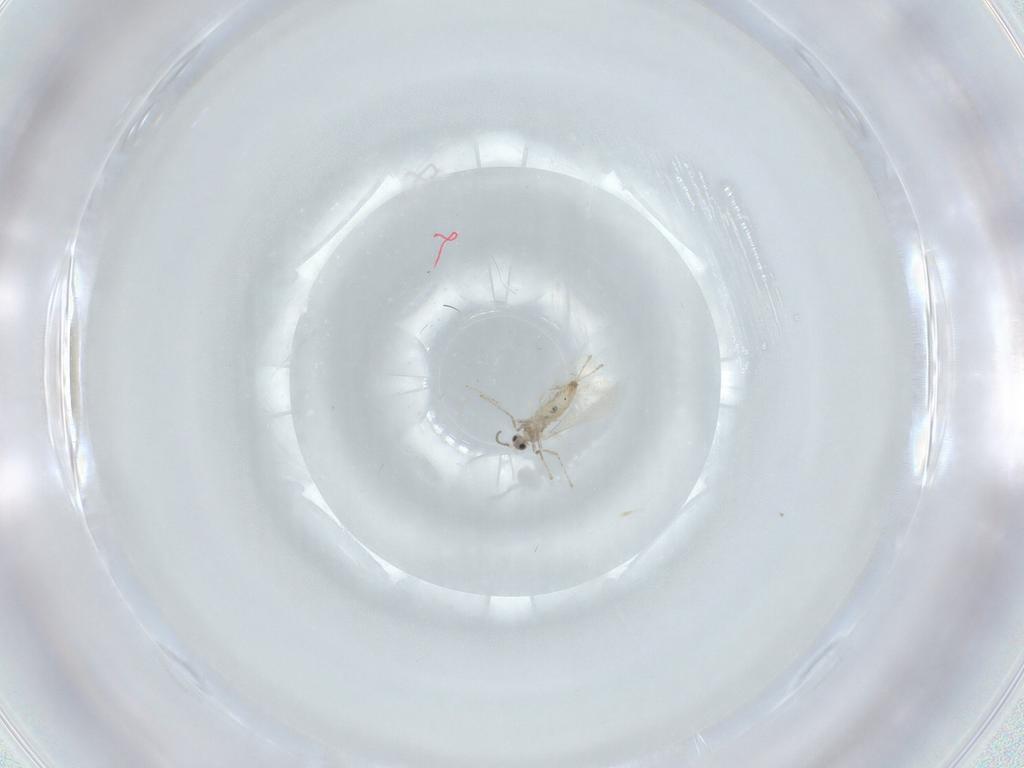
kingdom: Animalia
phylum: Arthropoda
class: Insecta
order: Diptera
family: Cecidomyiidae
